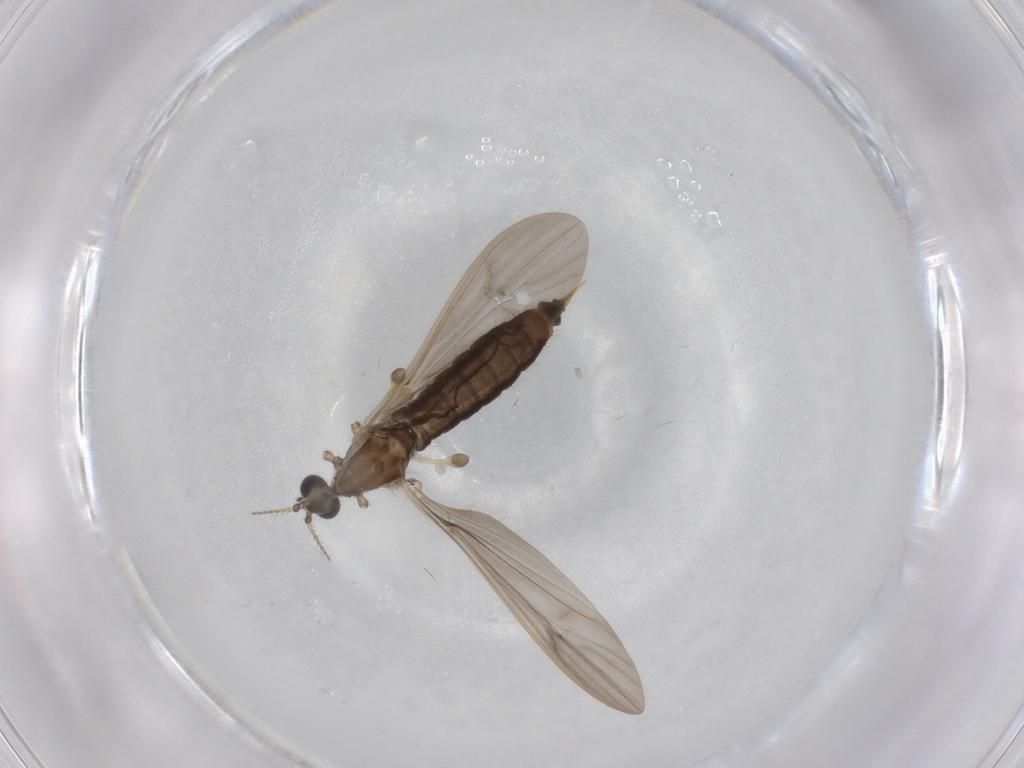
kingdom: Animalia
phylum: Arthropoda
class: Insecta
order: Diptera
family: Limoniidae
